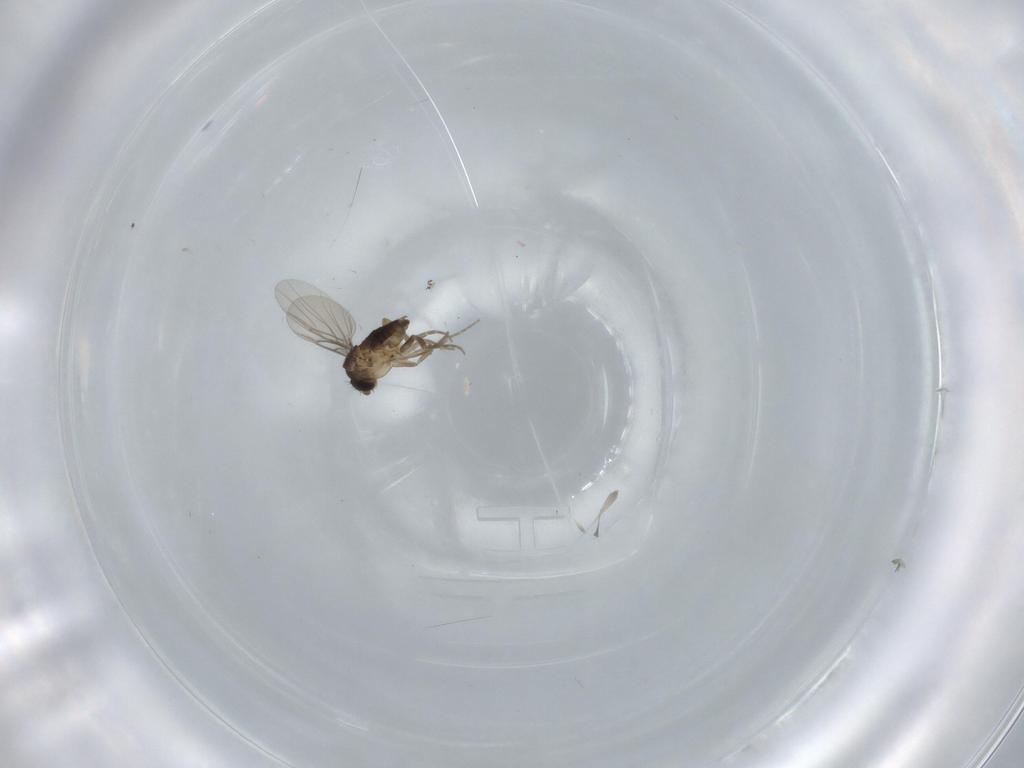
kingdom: Animalia
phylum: Arthropoda
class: Insecta
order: Diptera
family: Phoridae
